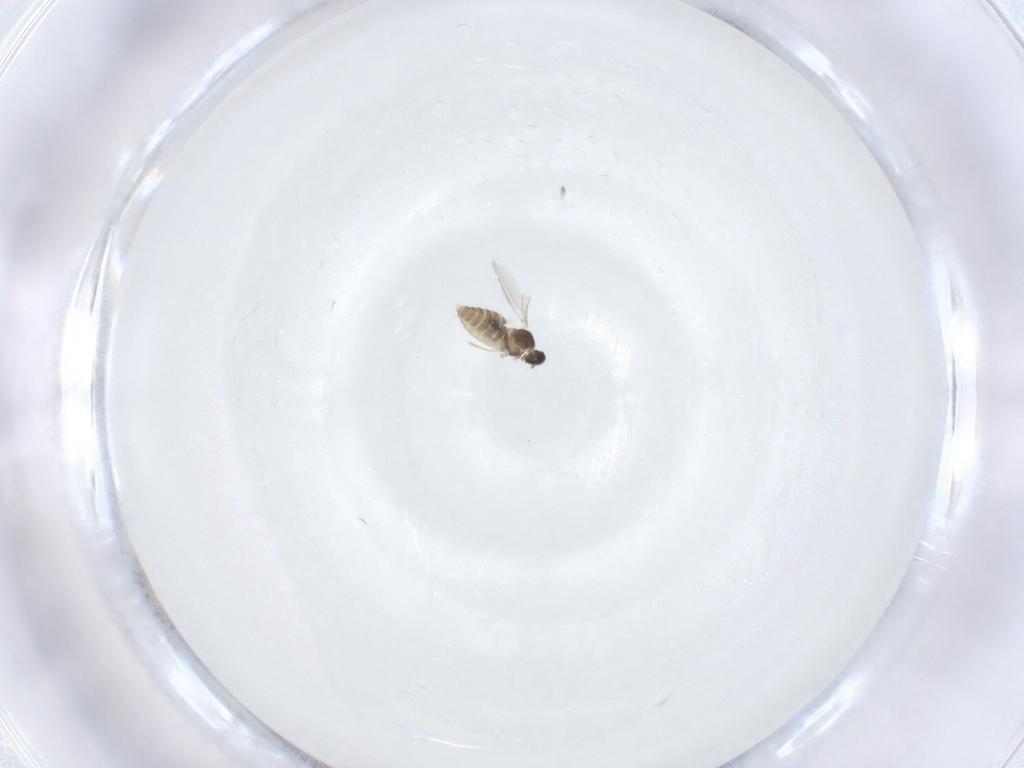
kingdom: Animalia
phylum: Arthropoda
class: Insecta
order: Diptera
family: Cecidomyiidae
